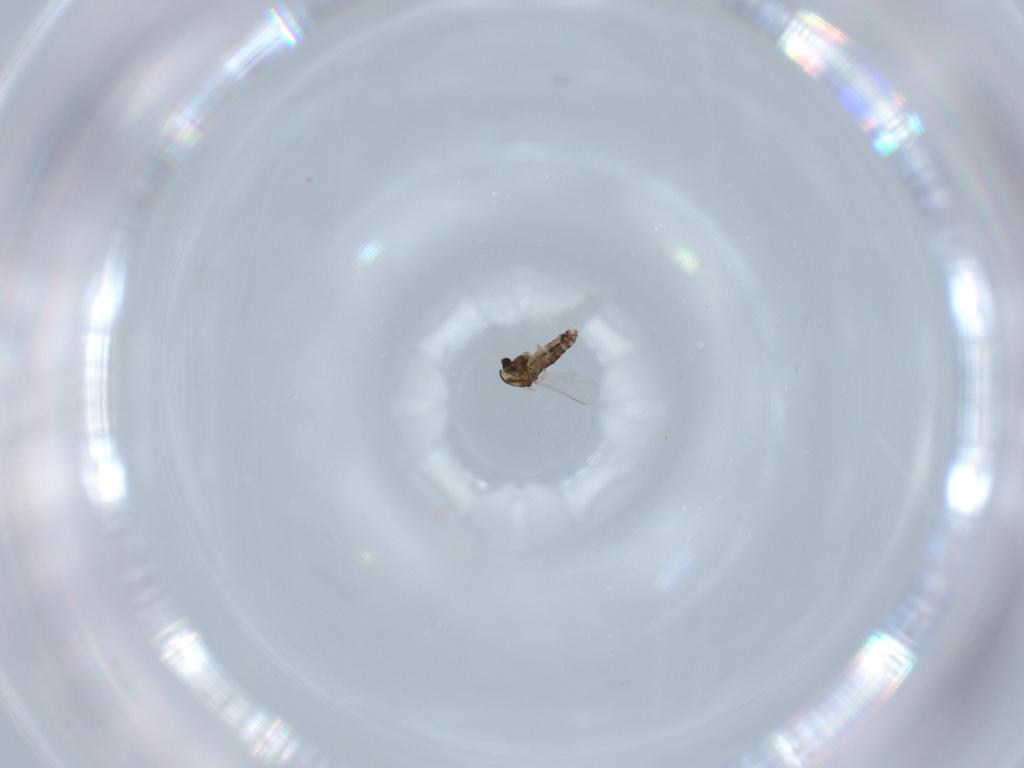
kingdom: Animalia
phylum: Arthropoda
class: Insecta
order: Diptera
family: Chironomidae
